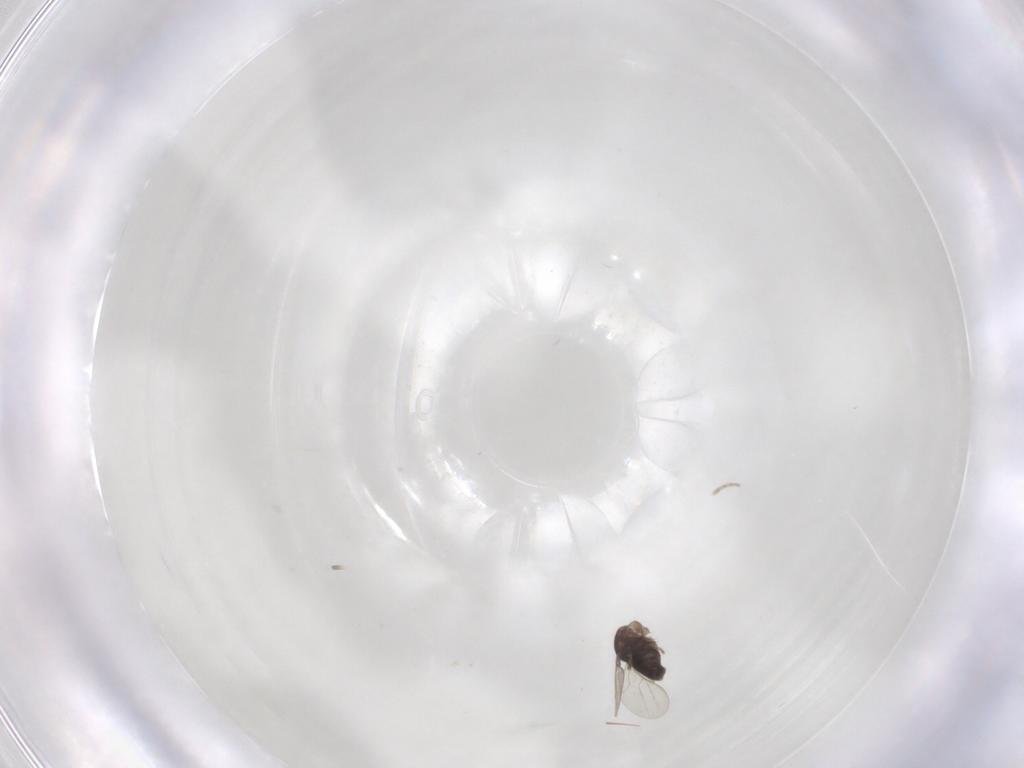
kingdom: Animalia
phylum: Arthropoda
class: Insecta
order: Diptera
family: Phoridae
